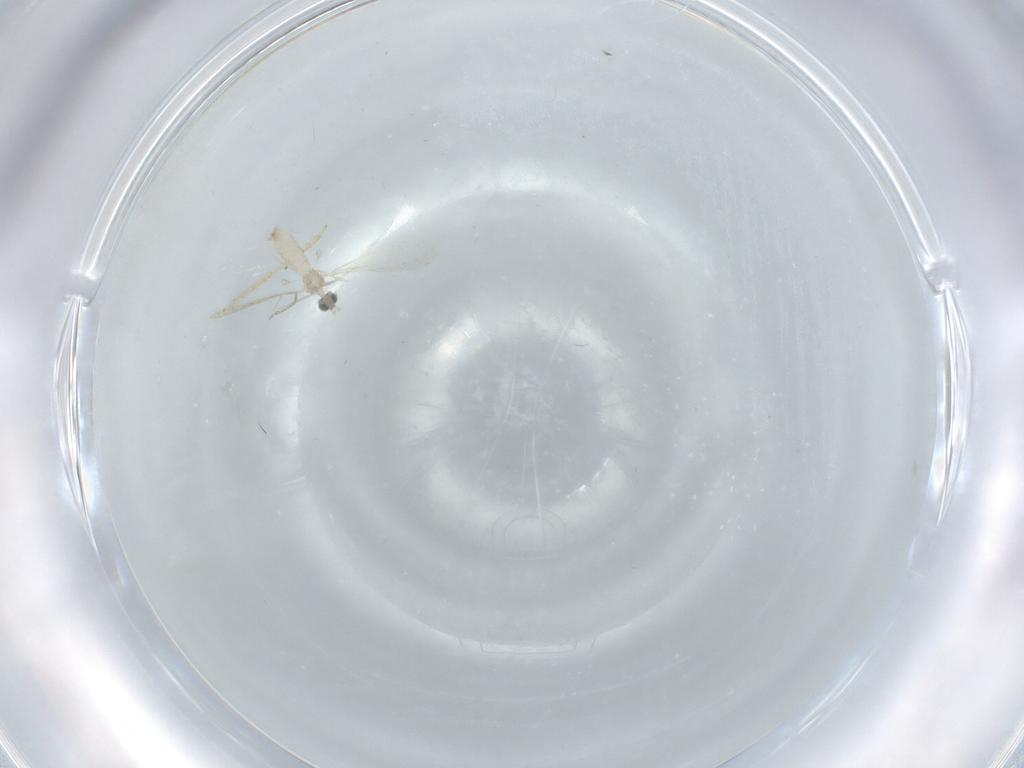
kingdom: Animalia
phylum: Arthropoda
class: Insecta
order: Diptera
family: Cecidomyiidae
